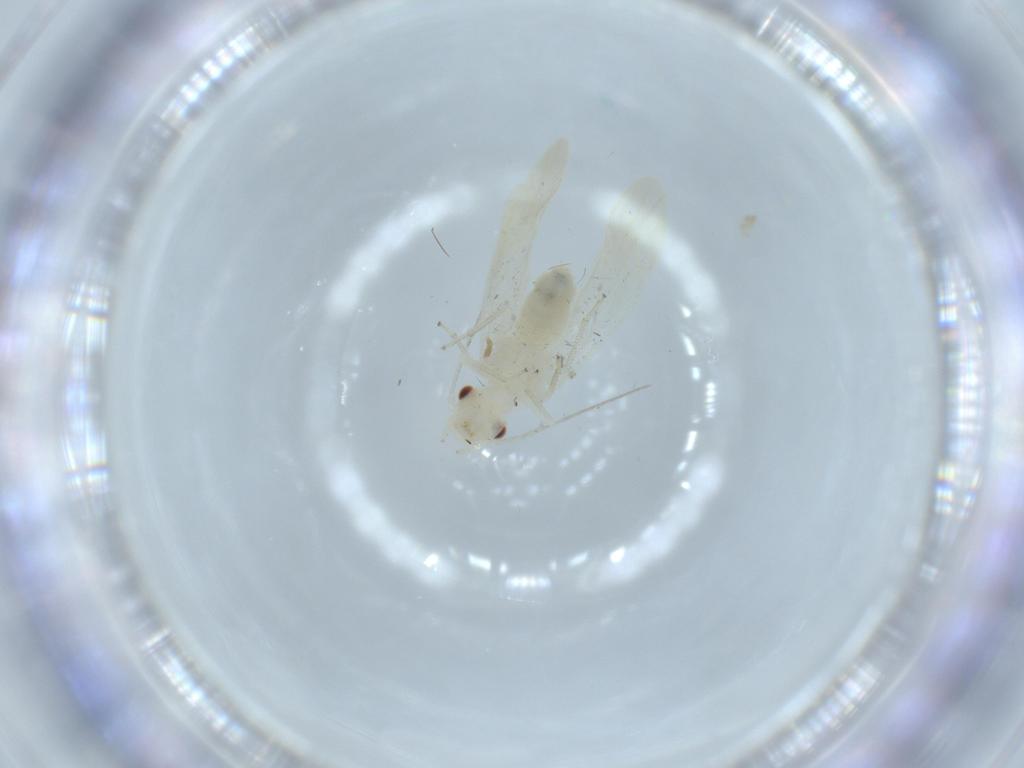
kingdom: Animalia
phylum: Arthropoda
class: Insecta
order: Psocodea
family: Caeciliusidae
